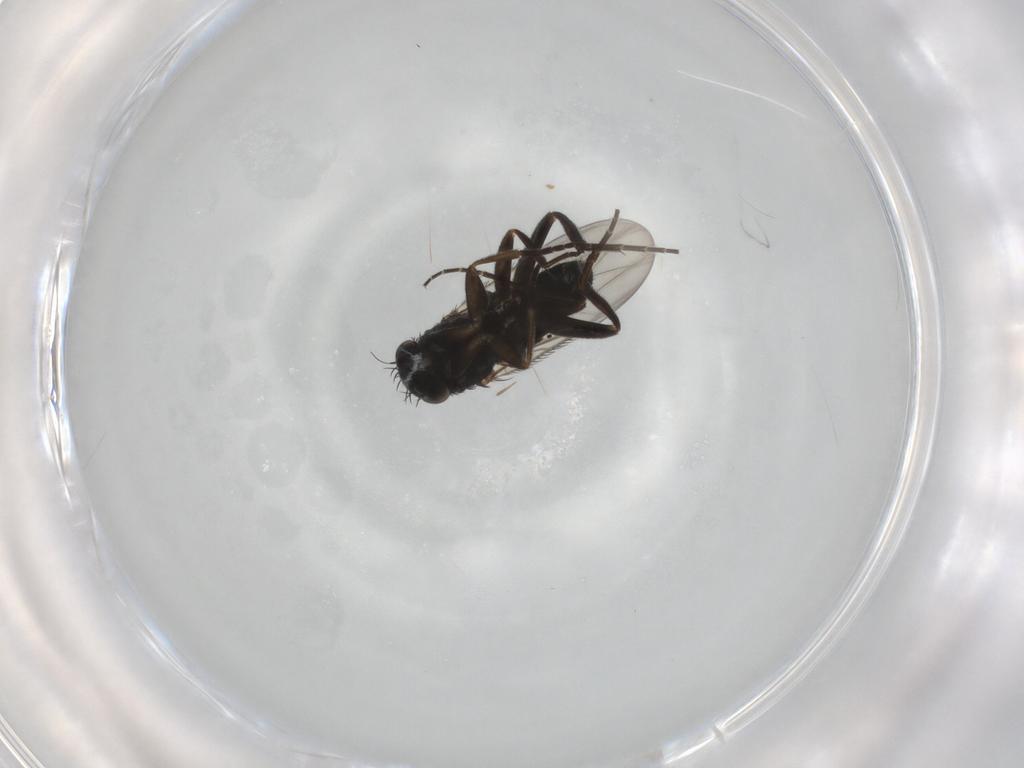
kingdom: Animalia
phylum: Arthropoda
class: Insecta
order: Diptera
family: Phoridae
